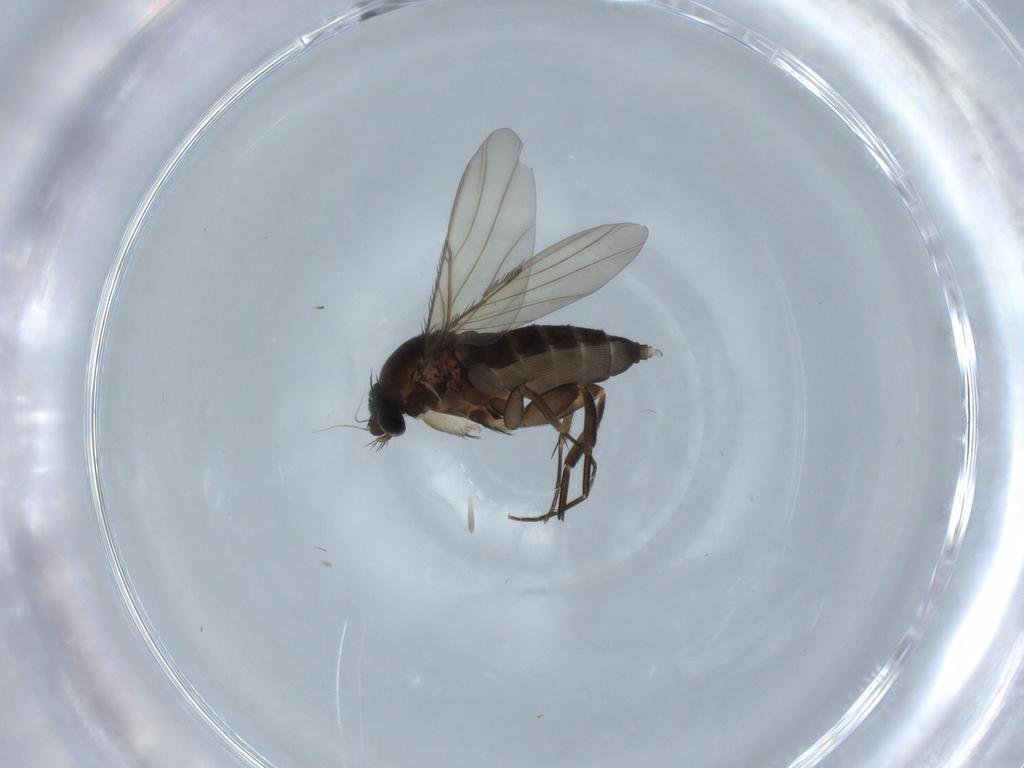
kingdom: Animalia
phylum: Arthropoda
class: Insecta
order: Diptera
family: Phoridae
